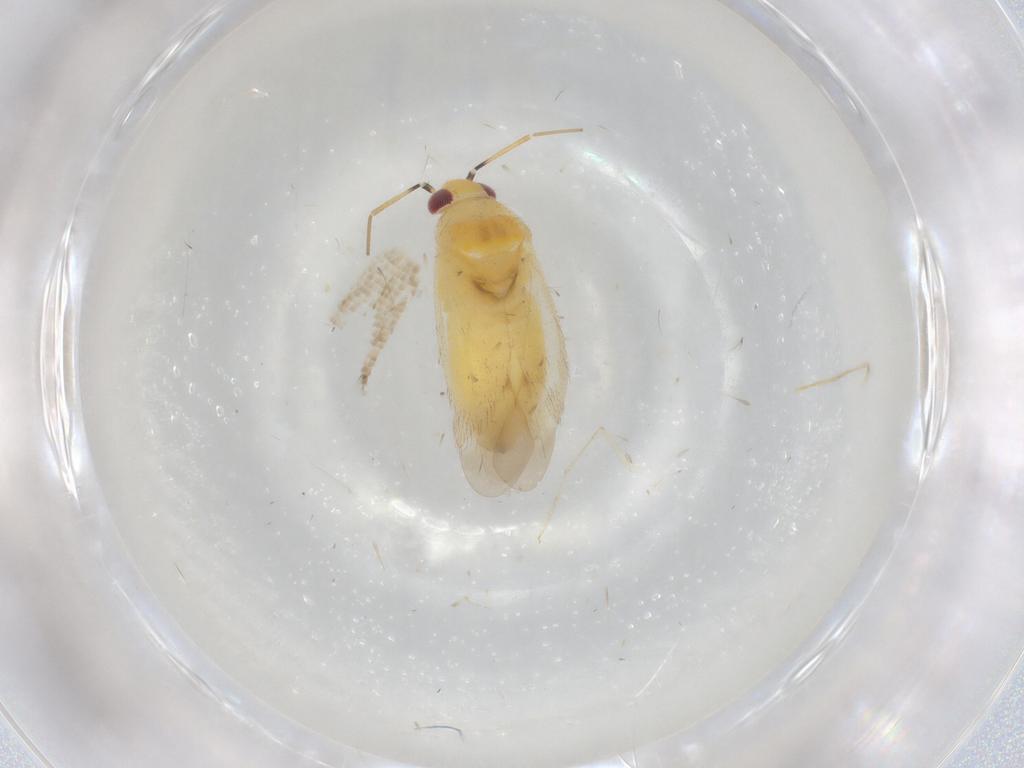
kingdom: Animalia
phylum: Arthropoda
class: Insecta
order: Hemiptera
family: Miridae
